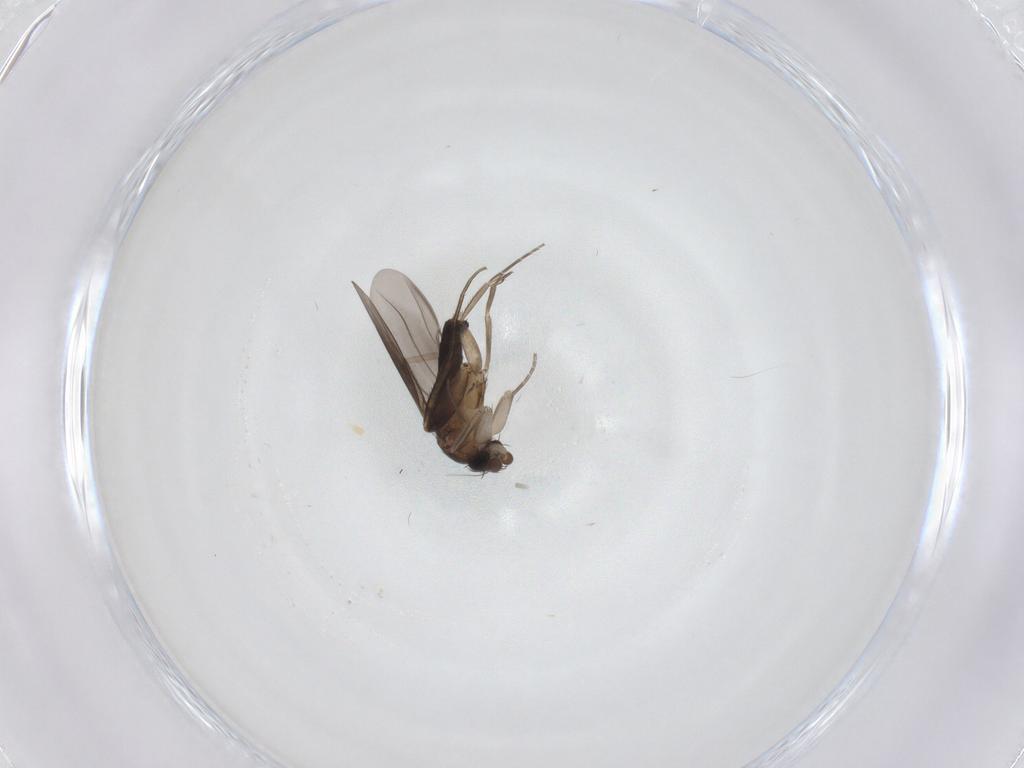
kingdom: Animalia
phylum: Arthropoda
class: Insecta
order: Diptera
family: Phoridae
